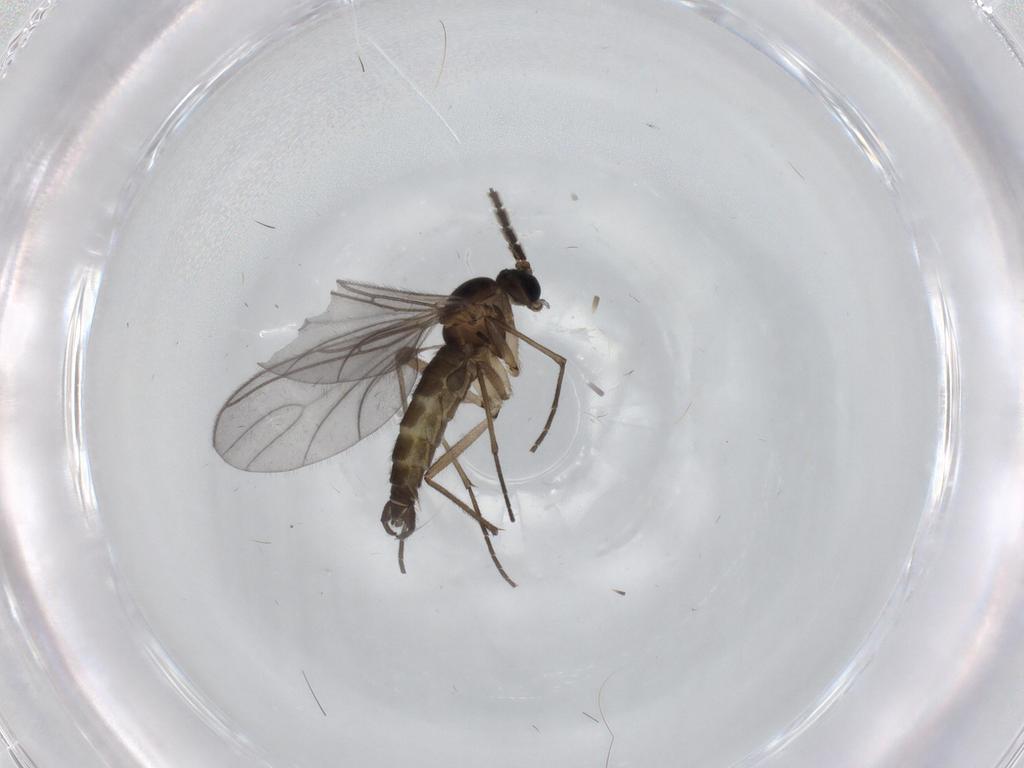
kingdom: Animalia
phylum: Arthropoda
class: Insecta
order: Diptera
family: Sciaridae
